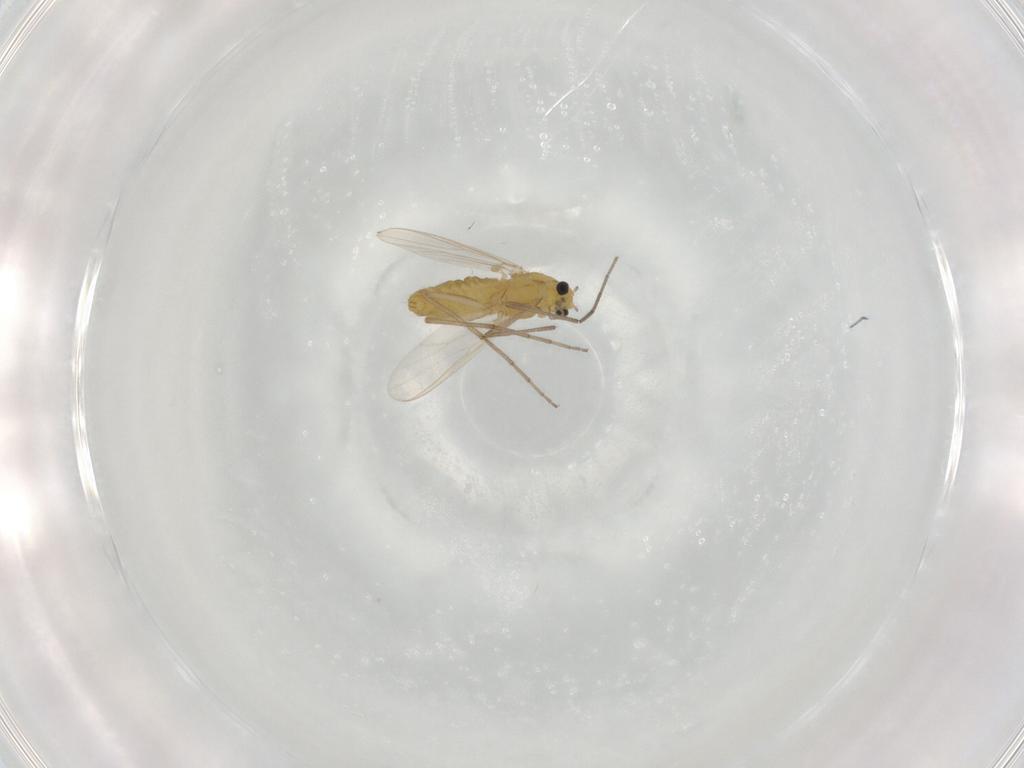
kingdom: Animalia
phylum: Arthropoda
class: Insecta
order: Diptera
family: Chironomidae
